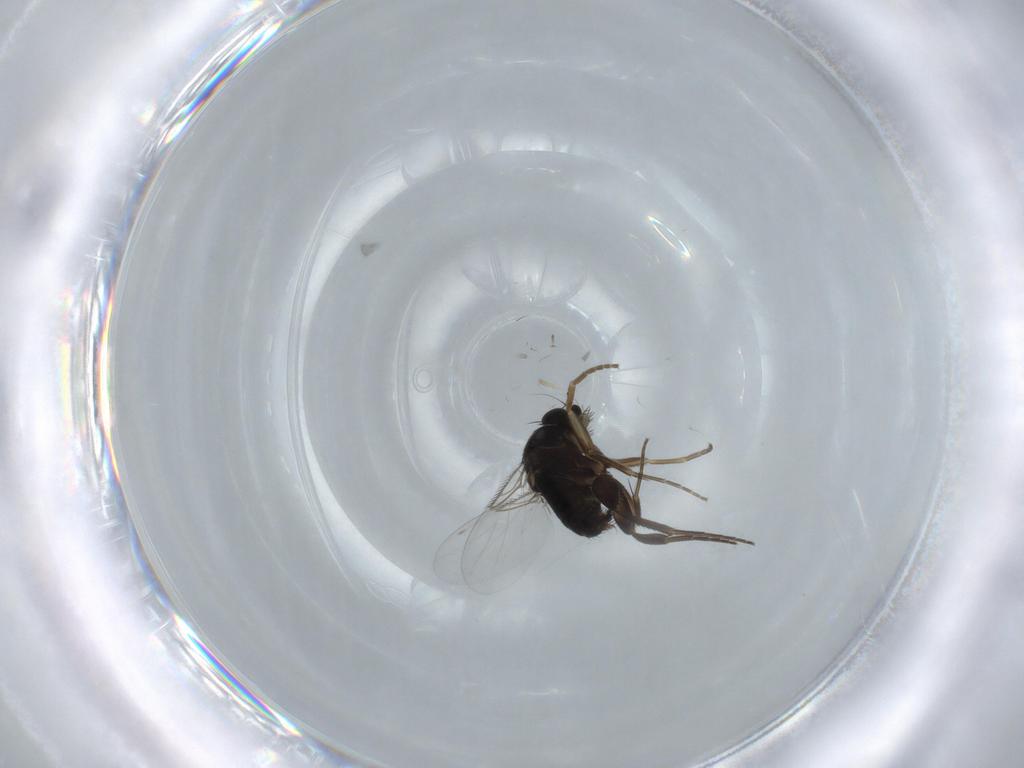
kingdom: Animalia
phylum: Arthropoda
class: Insecta
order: Diptera
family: Phoridae
